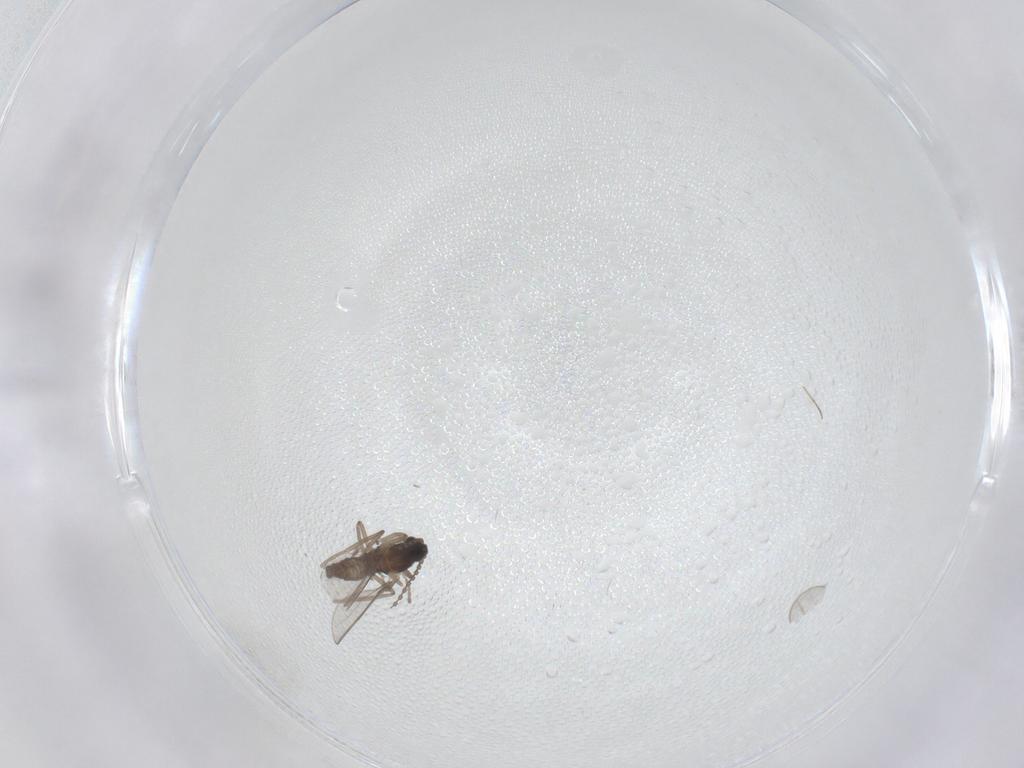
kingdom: Animalia
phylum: Arthropoda
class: Insecta
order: Diptera
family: Cecidomyiidae
